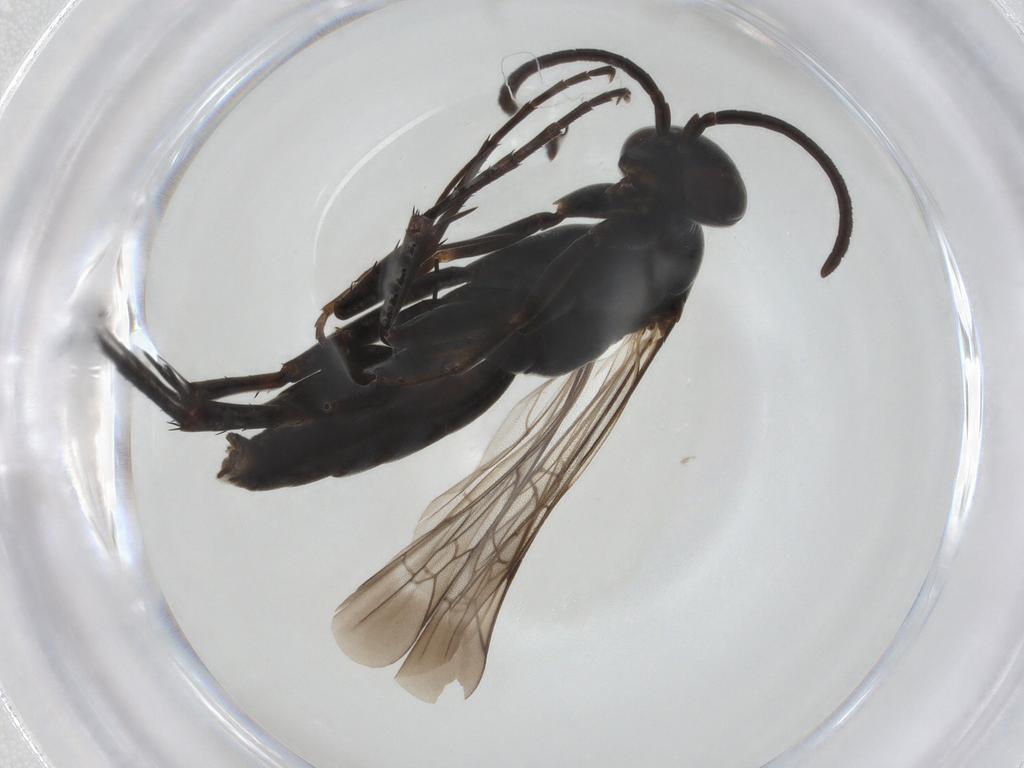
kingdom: Animalia
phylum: Arthropoda
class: Insecta
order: Hymenoptera
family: Pompilidae
